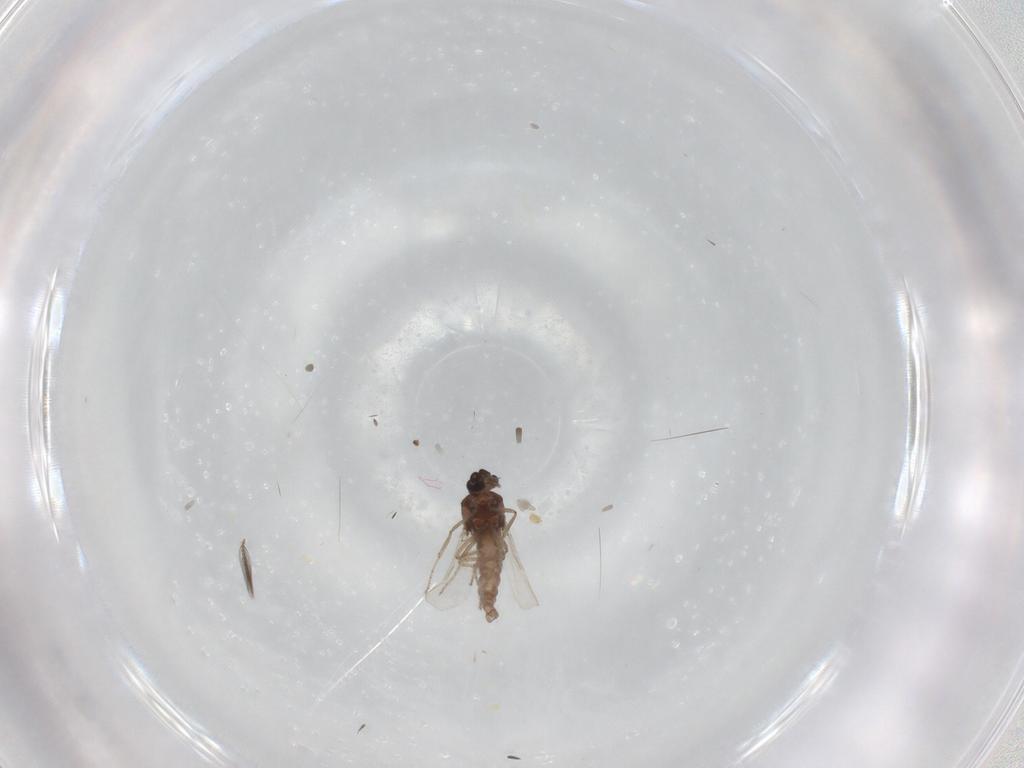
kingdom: Animalia
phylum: Arthropoda
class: Insecta
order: Diptera
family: Ceratopogonidae
